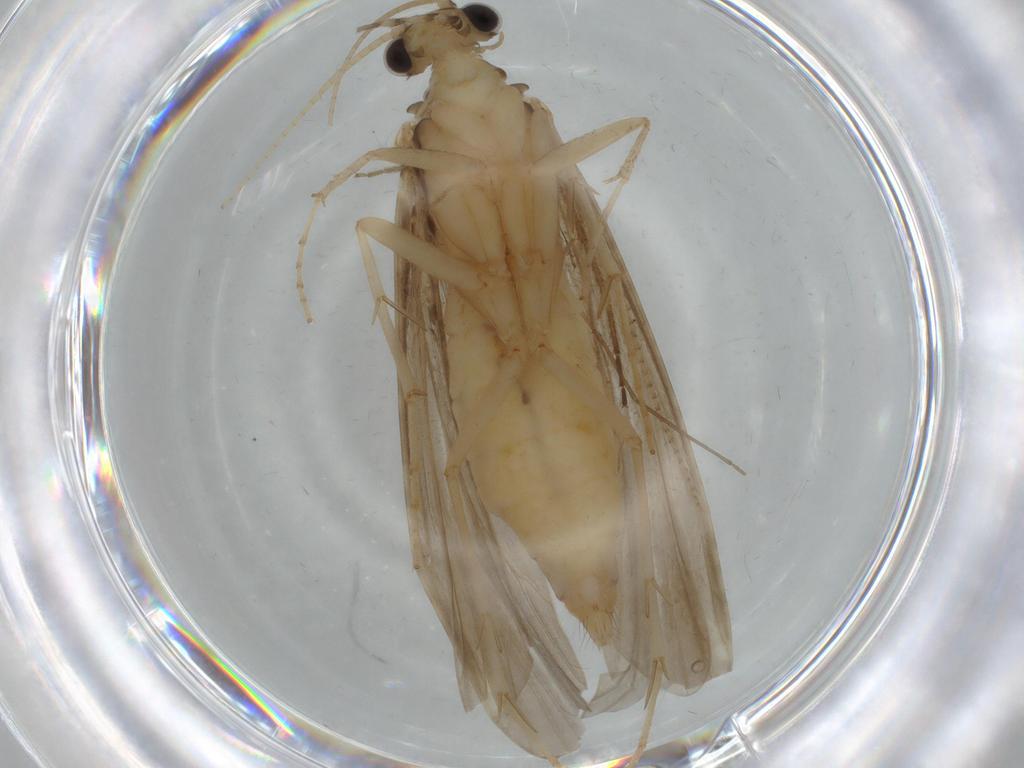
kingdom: Animalia
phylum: Arthropoda
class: Insecta
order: Trichoptera
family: Ecnomidae
